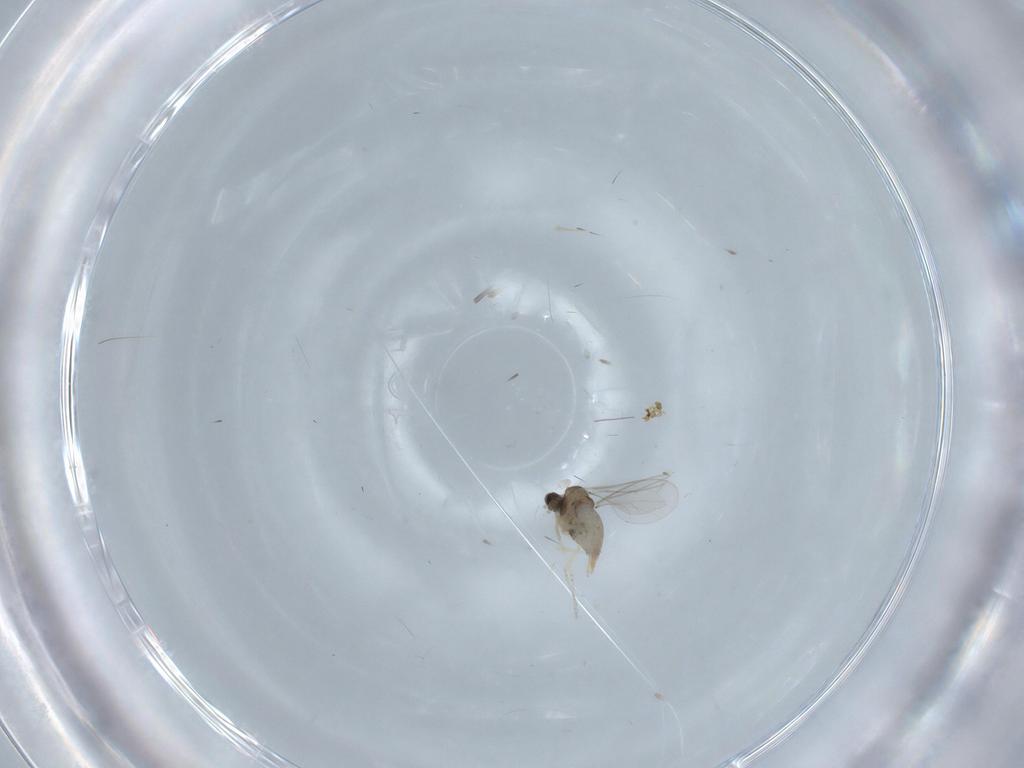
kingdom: Animalia
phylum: Arthropoda
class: Insecta
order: Diptera
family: Cecidomyiidae
